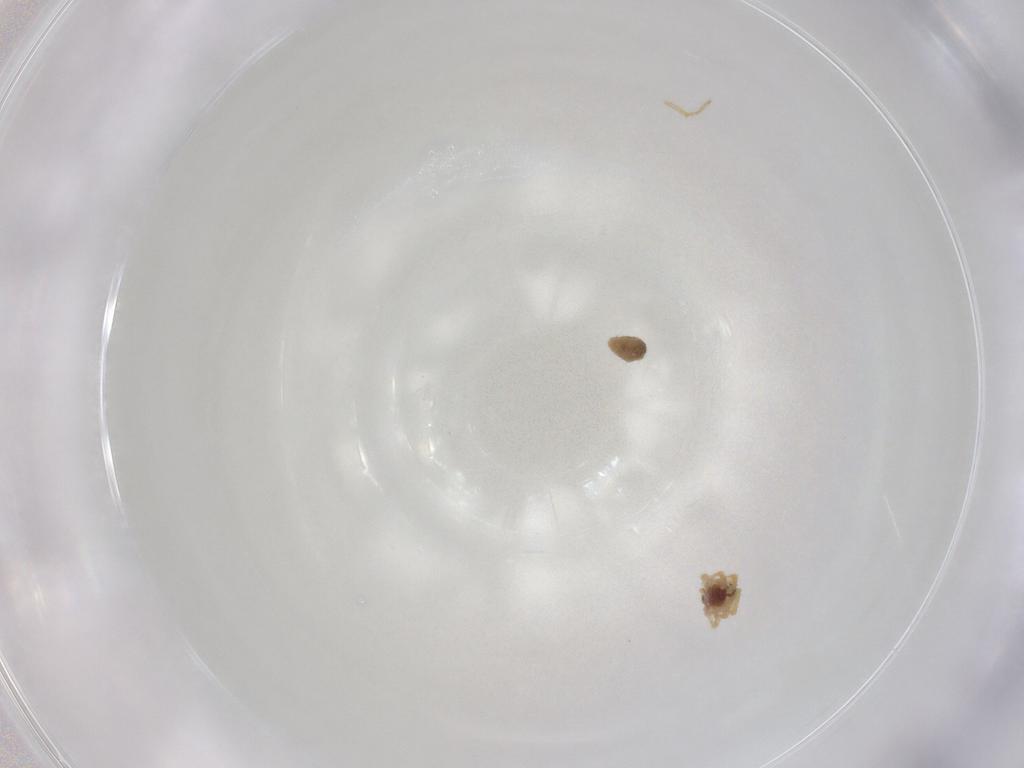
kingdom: Animalia
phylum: Arthropoda
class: Arachnida
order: Araneae
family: Theridiidae
